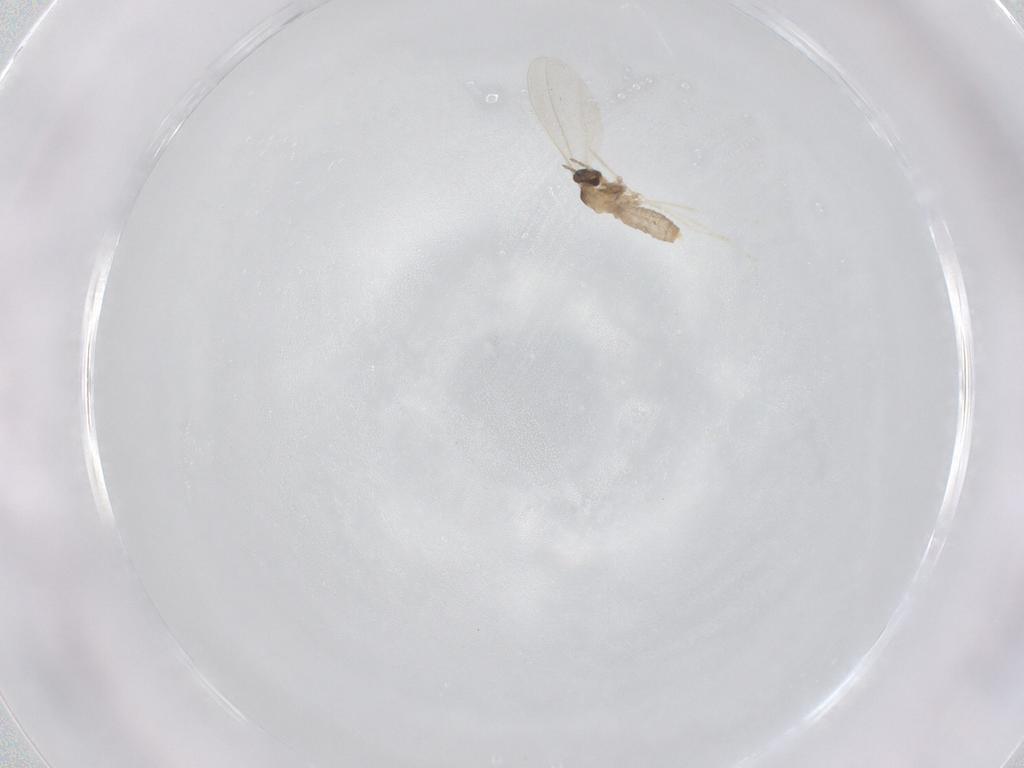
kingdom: Animalia
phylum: Arthropoda
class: Insecta
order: Diptera
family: Cecidomyiidae
